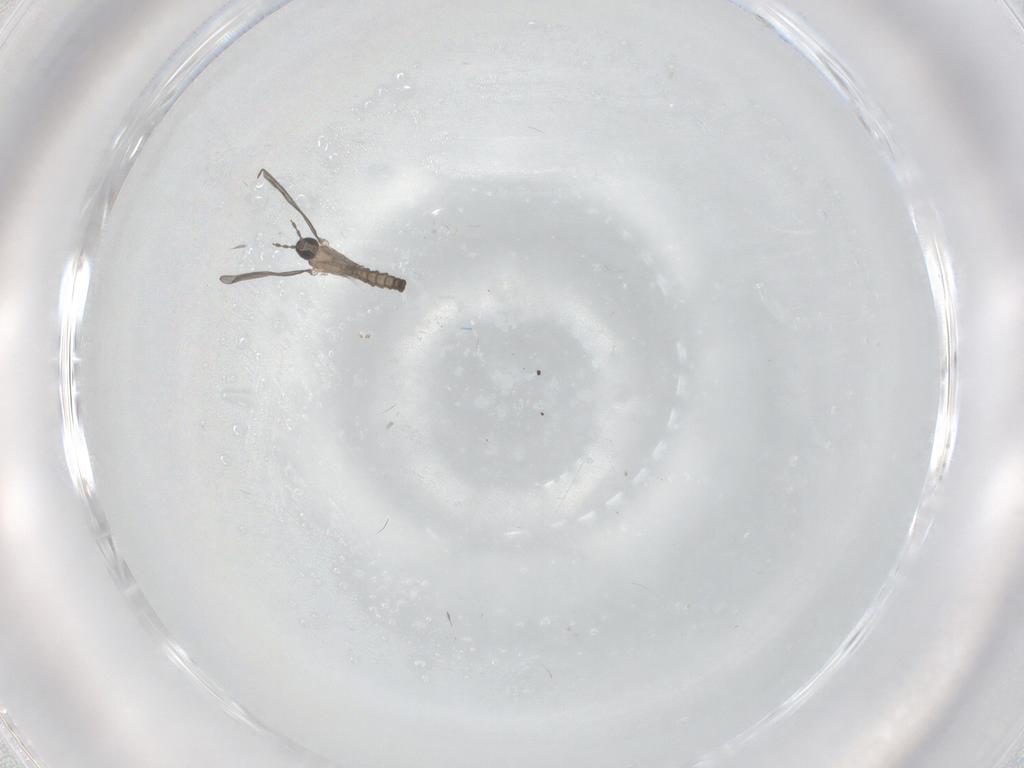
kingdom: Animalia
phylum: Arthropoda
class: Insecta
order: Diptera
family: Cecidomyiidae
